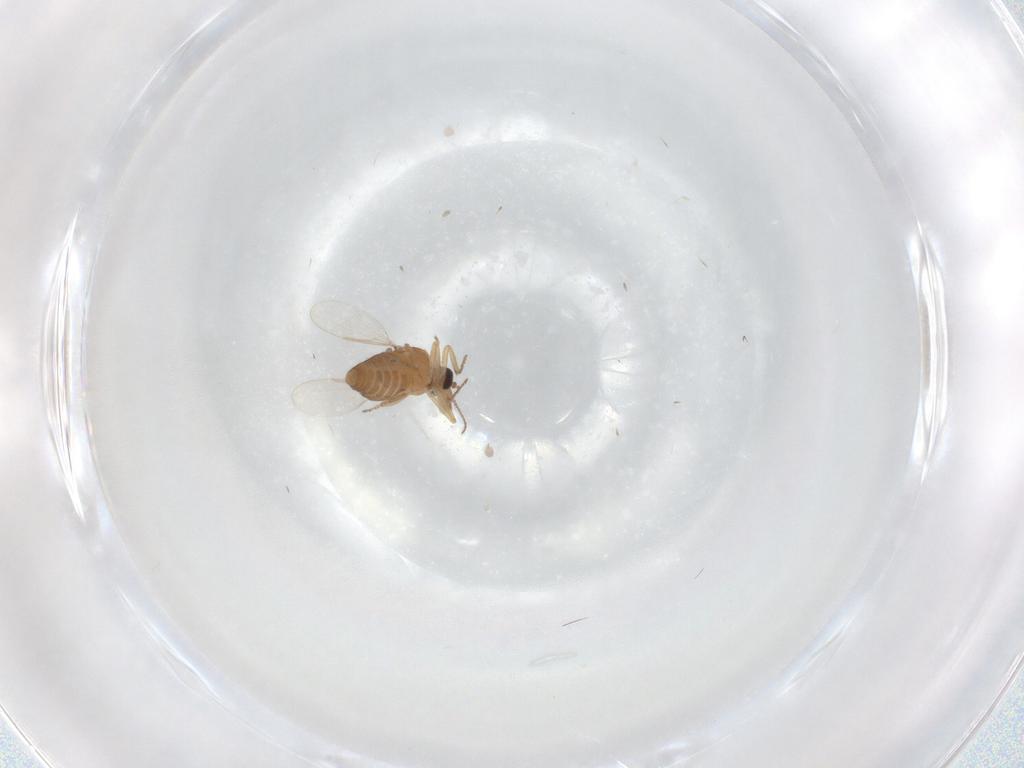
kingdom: Animalia
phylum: Arthropoda
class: Insecta
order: Diptera
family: Ceratopogonidae
